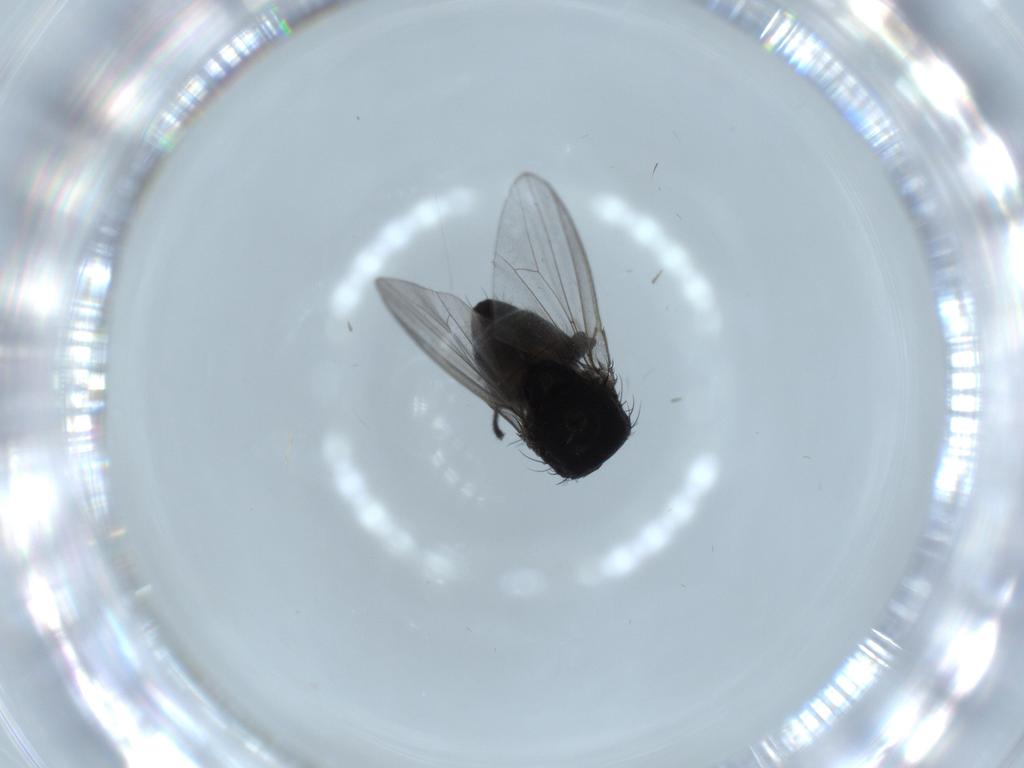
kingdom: Animalia
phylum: Arthropoda
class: Insecta
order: Diptera
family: Milichiidae
